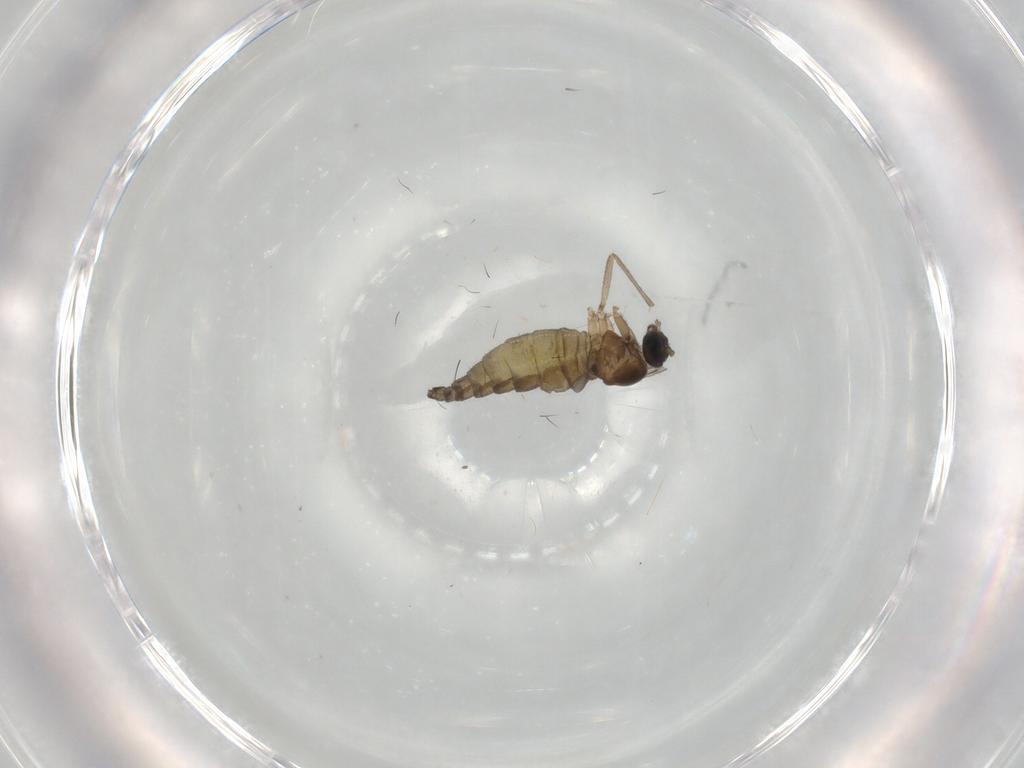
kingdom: Animalia
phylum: Arthropoda
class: Insecta
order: Diptera
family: Sciaridae
